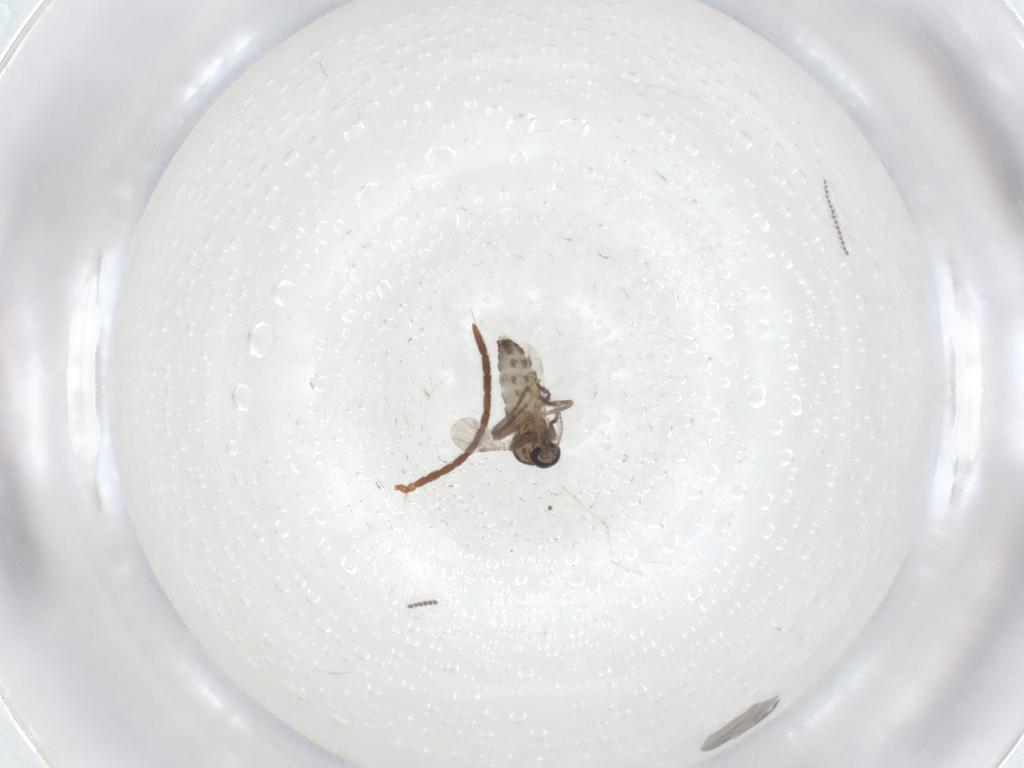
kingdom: Animalia
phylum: Arthropoda
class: Insecta
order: Diptera
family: Ceratopogonidae
